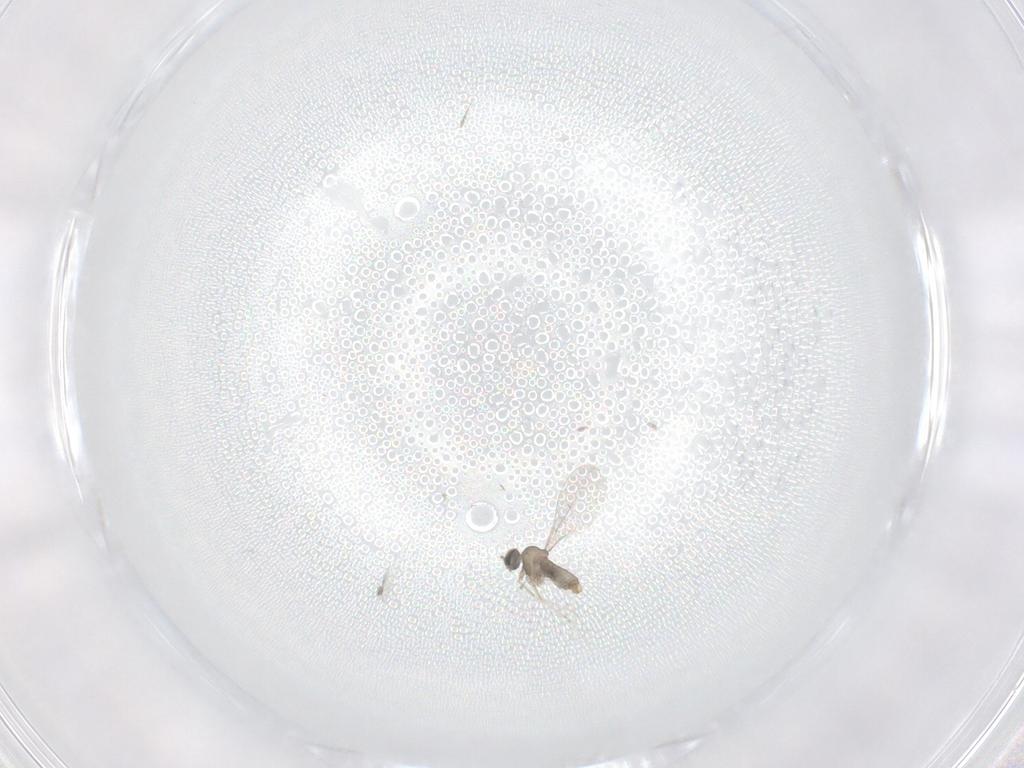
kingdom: Animalia
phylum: Arthropoda
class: Insecta
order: Diptera
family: Cecidomyiidae
